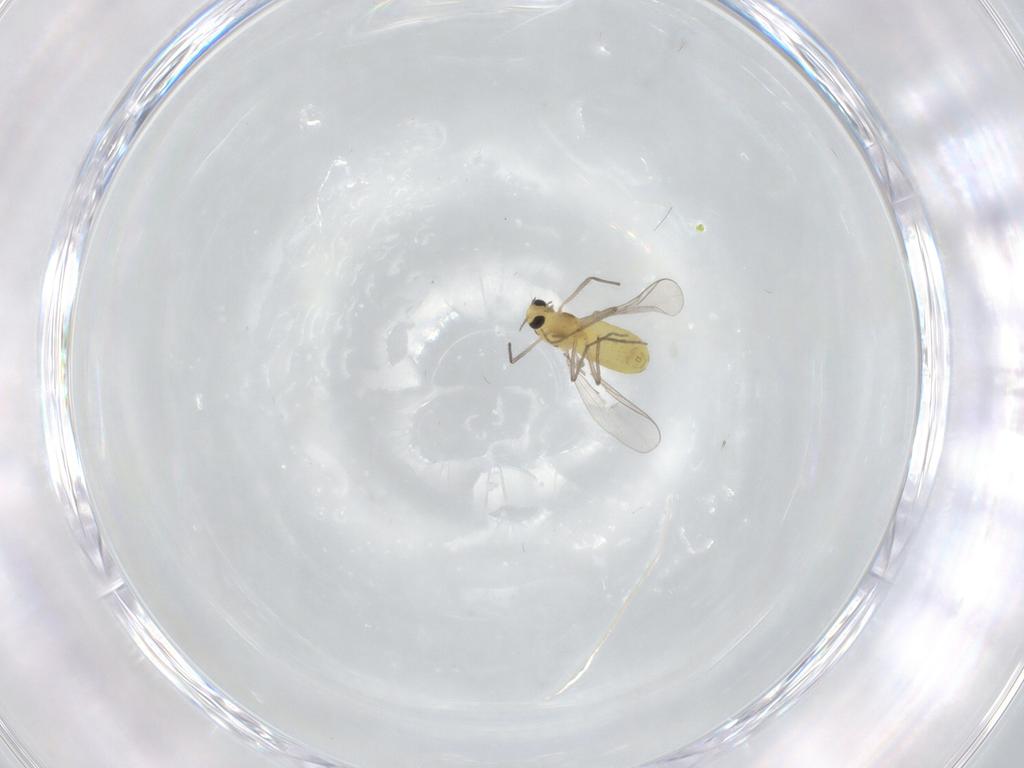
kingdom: Animalia
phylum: Arthropoda
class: Insecta
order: Diptera
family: Chironomidae
